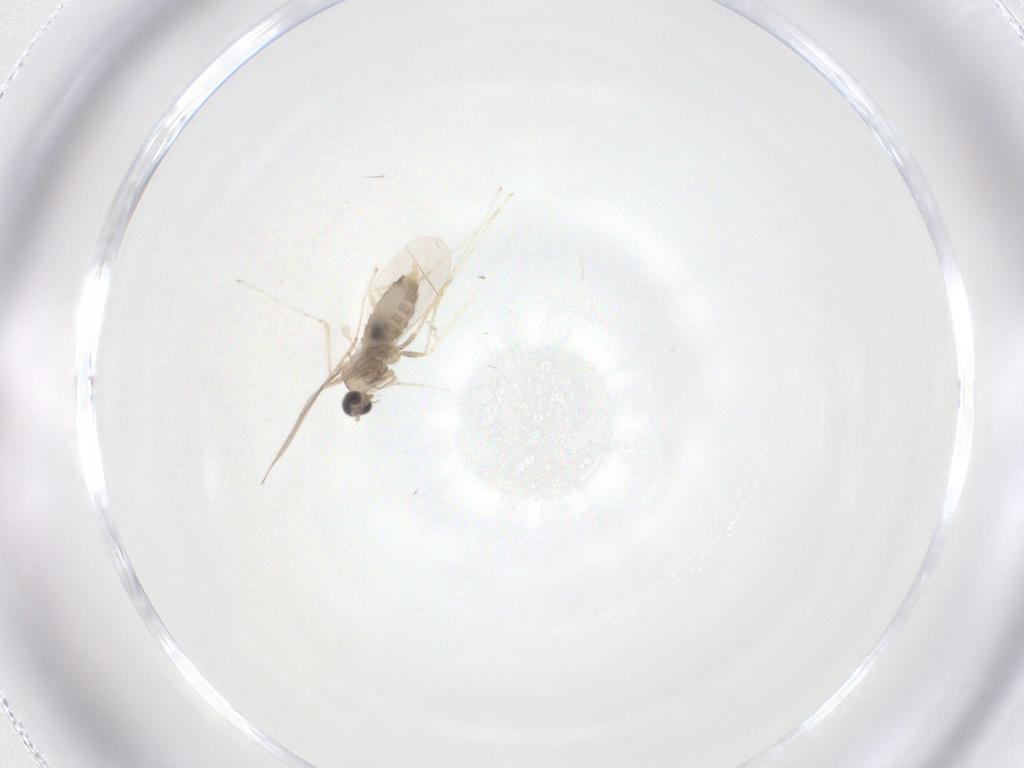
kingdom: Animalia
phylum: Arthropoda
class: Insecta
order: Diptera
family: Cecidomyiidae
